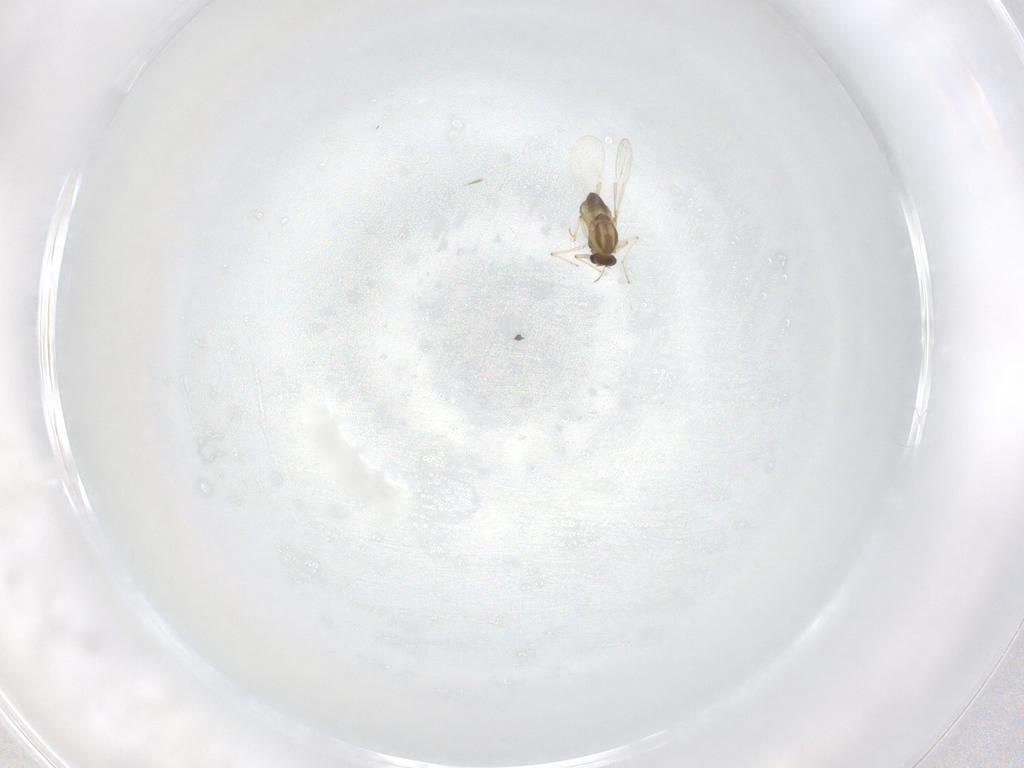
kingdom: Animalia
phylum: Arthropoda
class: Insecta
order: Diptera
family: Chironomidae
